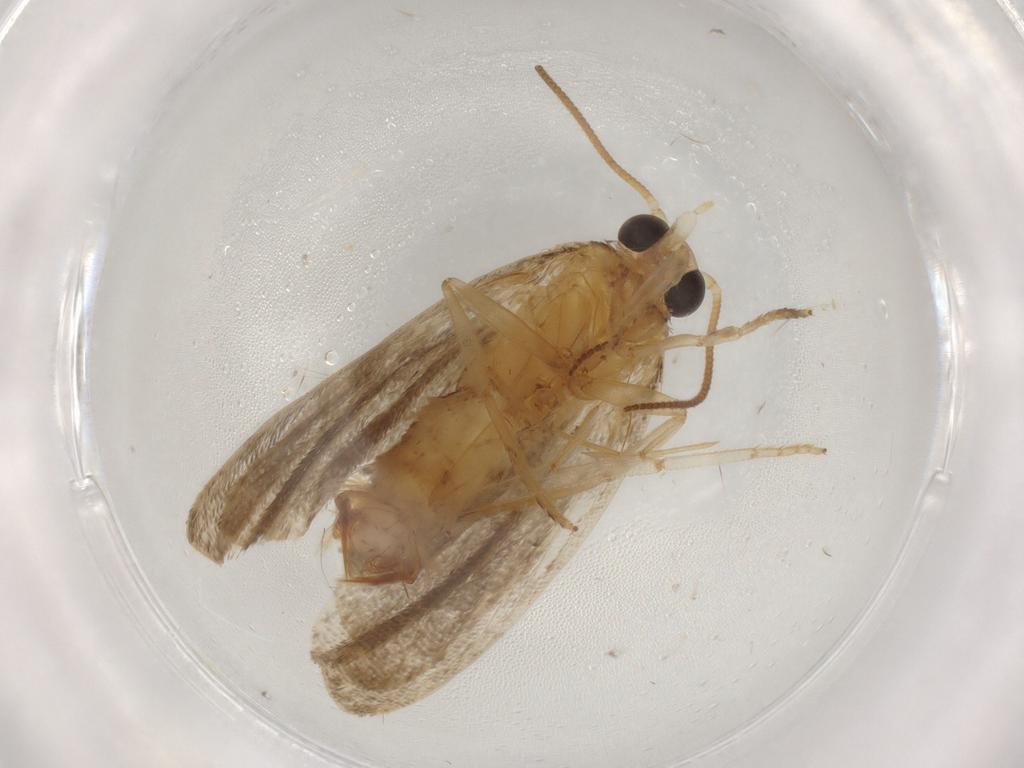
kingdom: Animalia
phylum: Arthropoda
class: Insecta
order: Lepidoptera
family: Tortricidae
